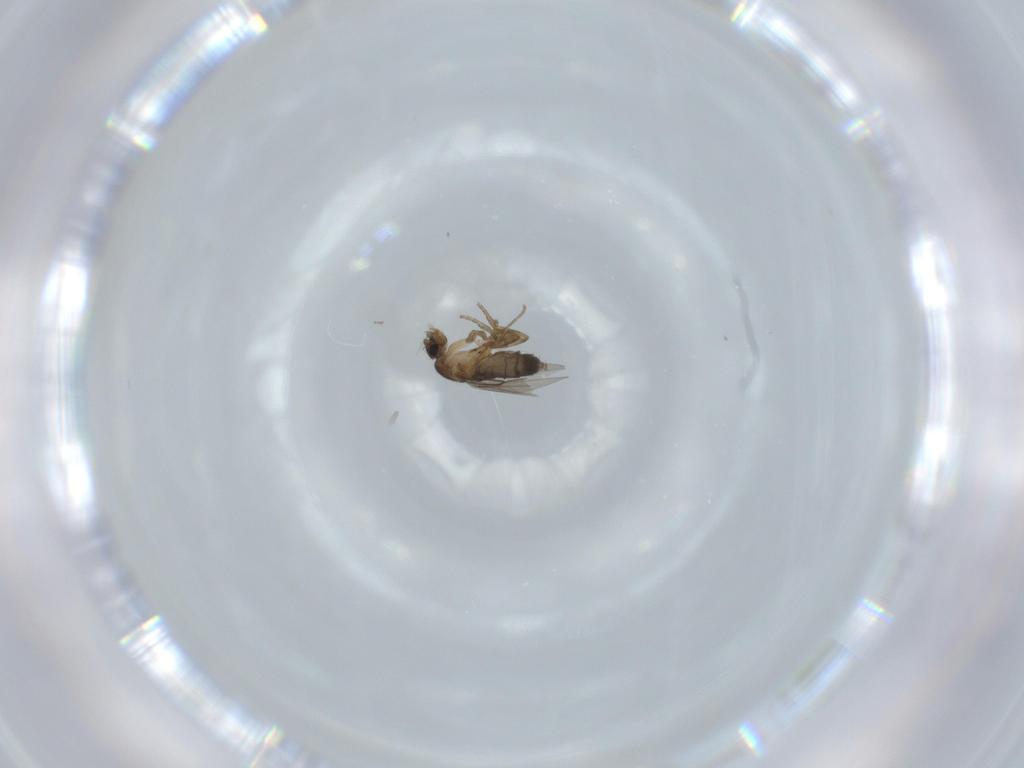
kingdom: Animalia
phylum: Arthropoda
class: Insecta
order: Diptera
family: Phoridae
